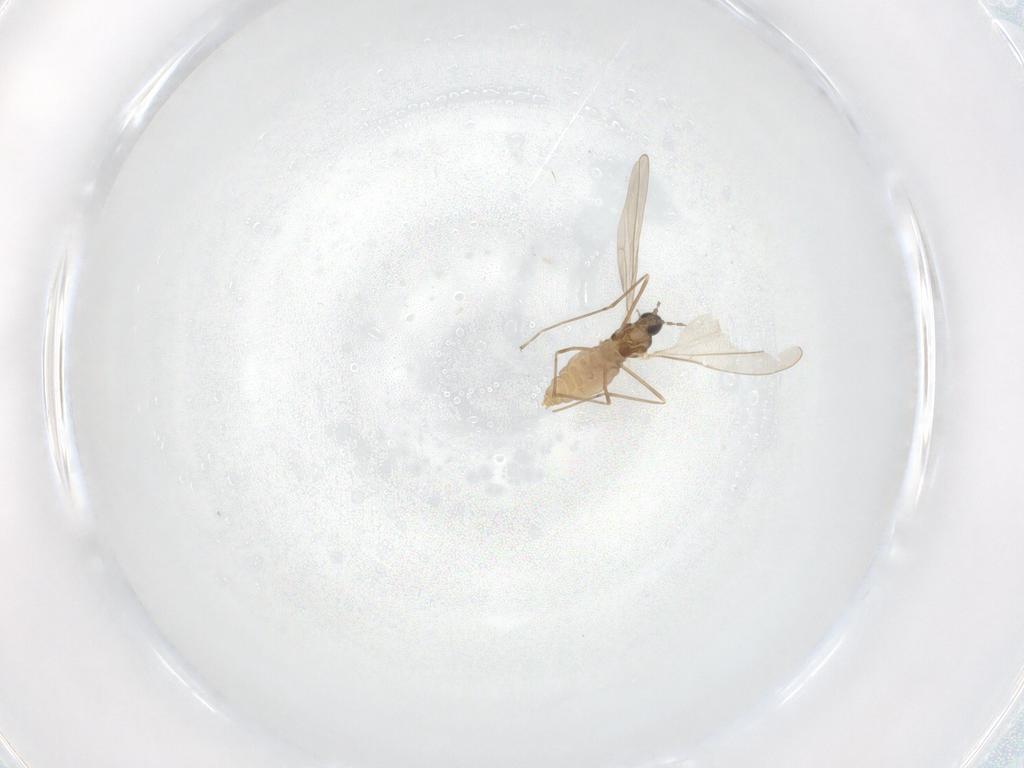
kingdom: Animalia
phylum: Arthropoda
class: Insecta
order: Diptera
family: Cecidomyiidae
